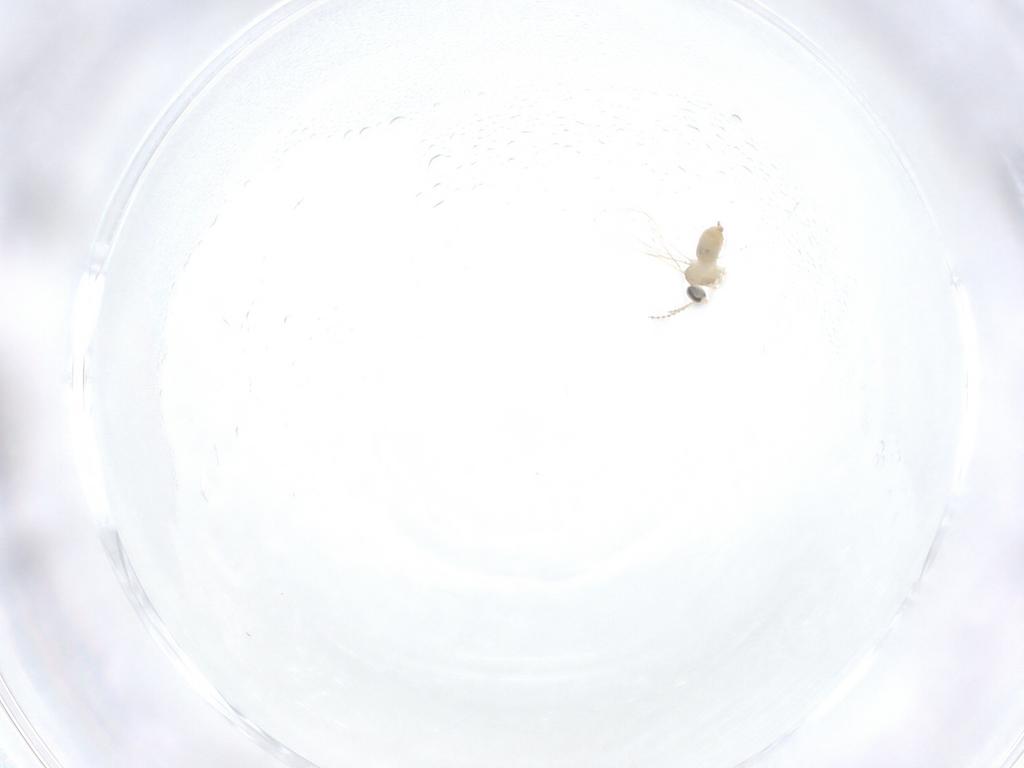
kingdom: Animalia
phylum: Arthropoda
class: Insecta
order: Diptera
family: Cecidomyiidae
